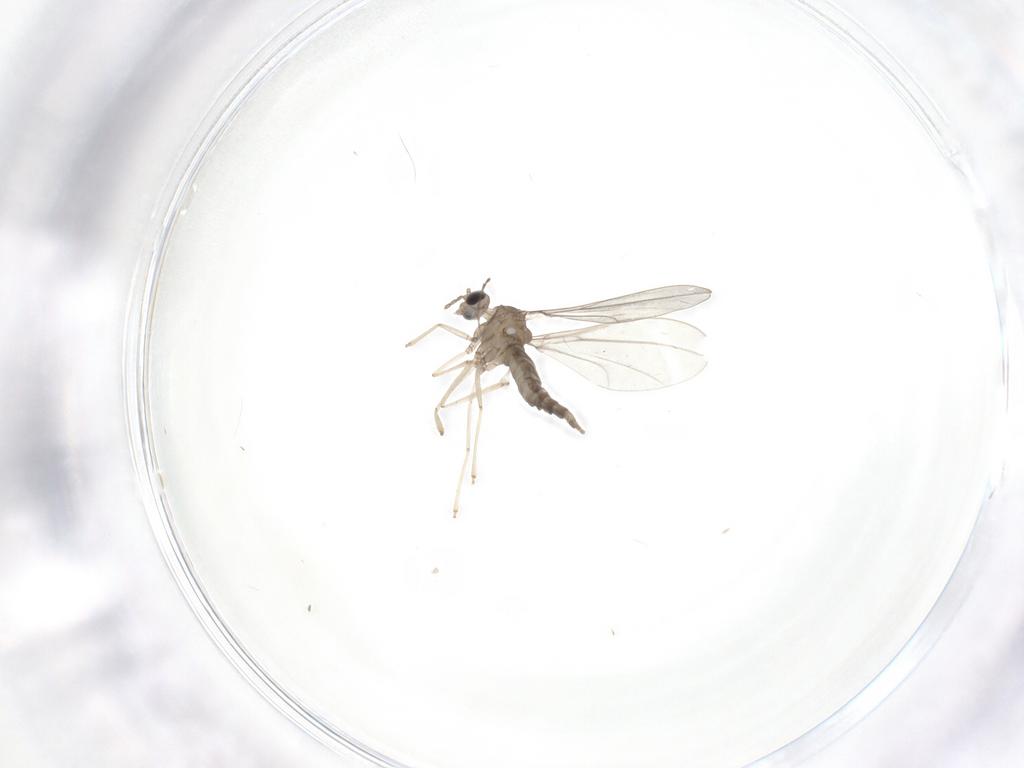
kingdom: Animalia
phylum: Arthropoda
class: Insecta
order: Diptera
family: Cecidomyiidae
